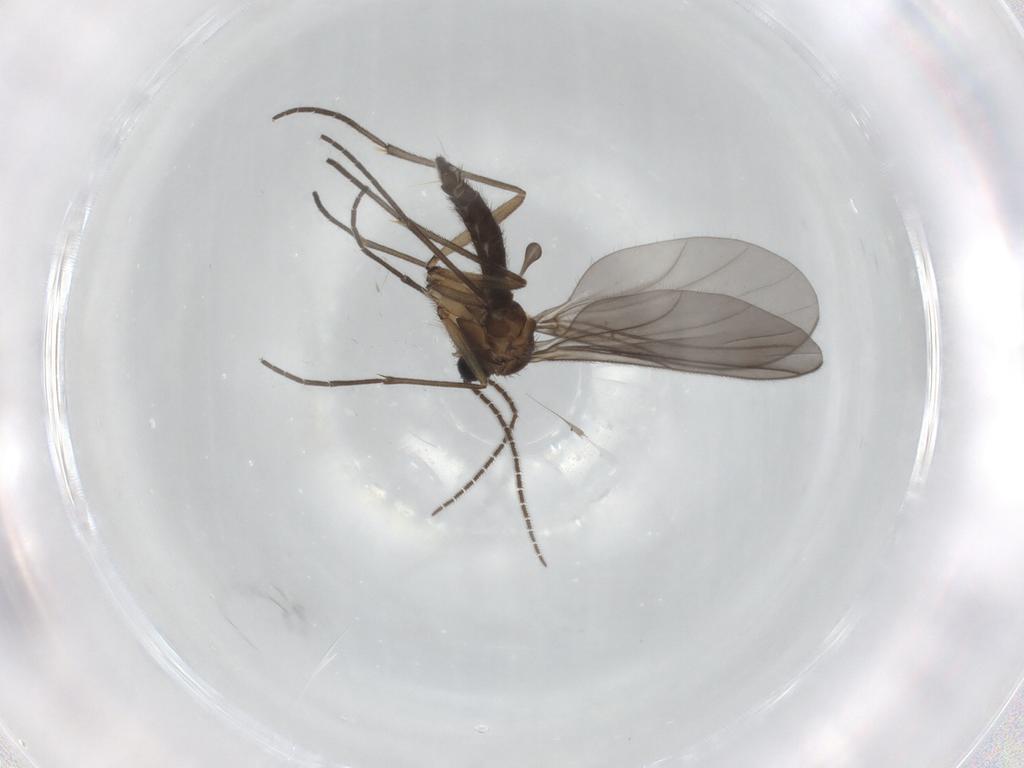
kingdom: Animalia
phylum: Arthropoda
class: Insecta
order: Diptera
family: Sciaridae
